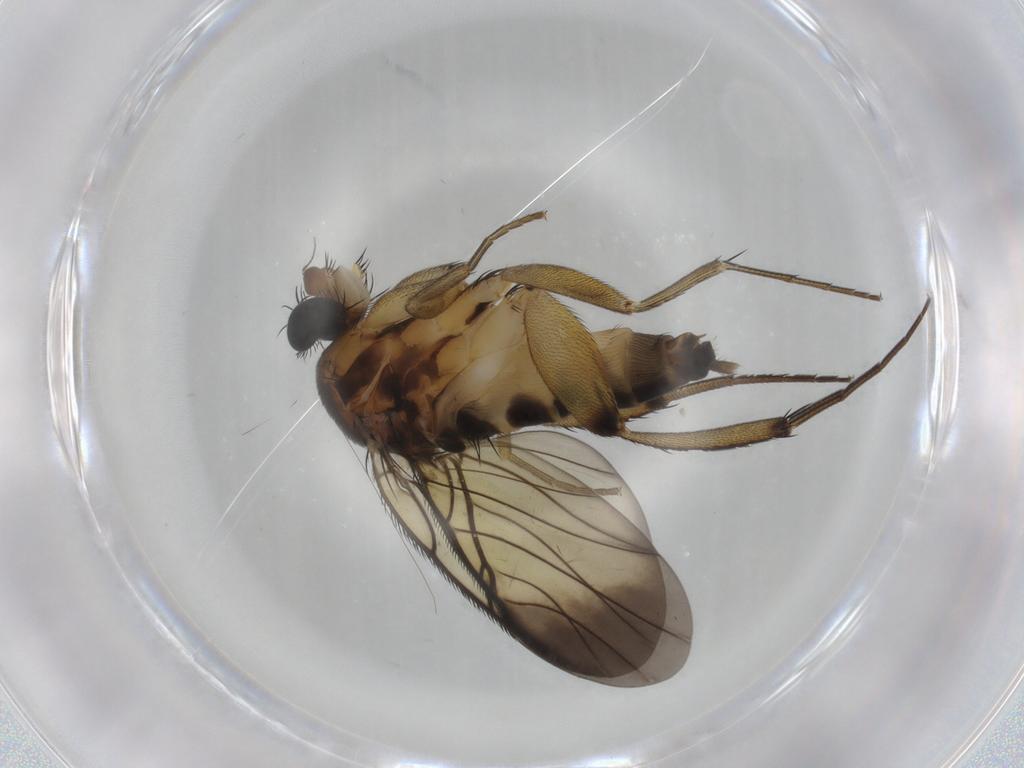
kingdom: Animalia
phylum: Arthropoda
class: Insecta
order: Diptera
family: Phoridae
